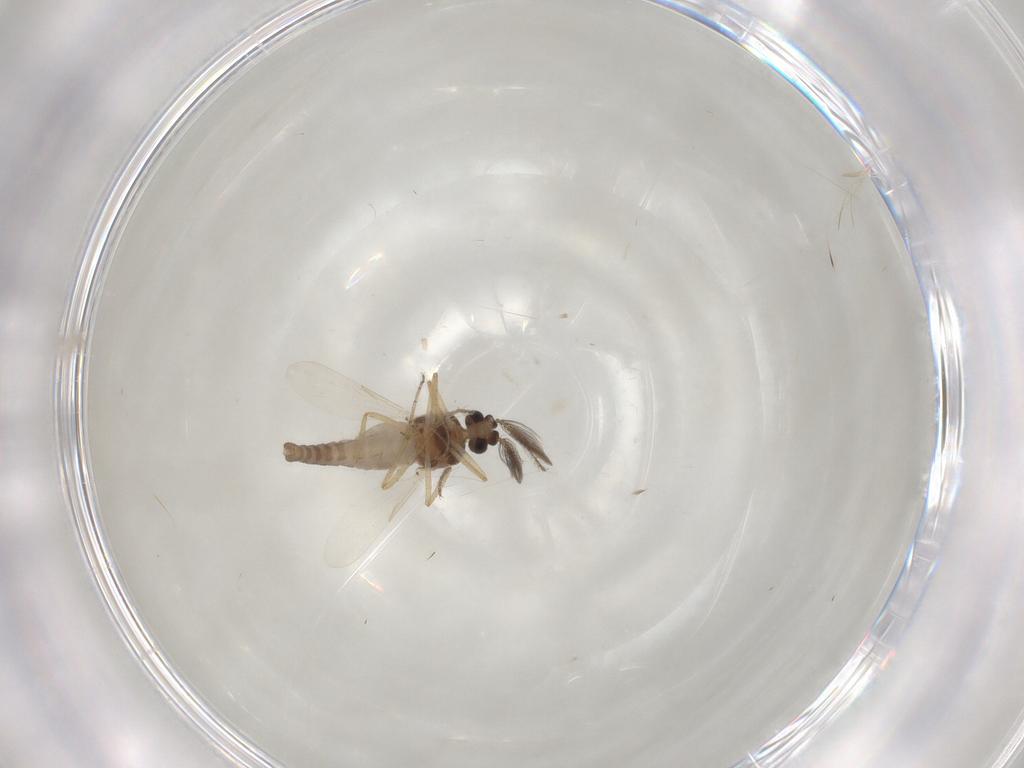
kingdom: Animalia
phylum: Arthropoda
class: Insecta
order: Diptera
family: Ceratopogonidae
